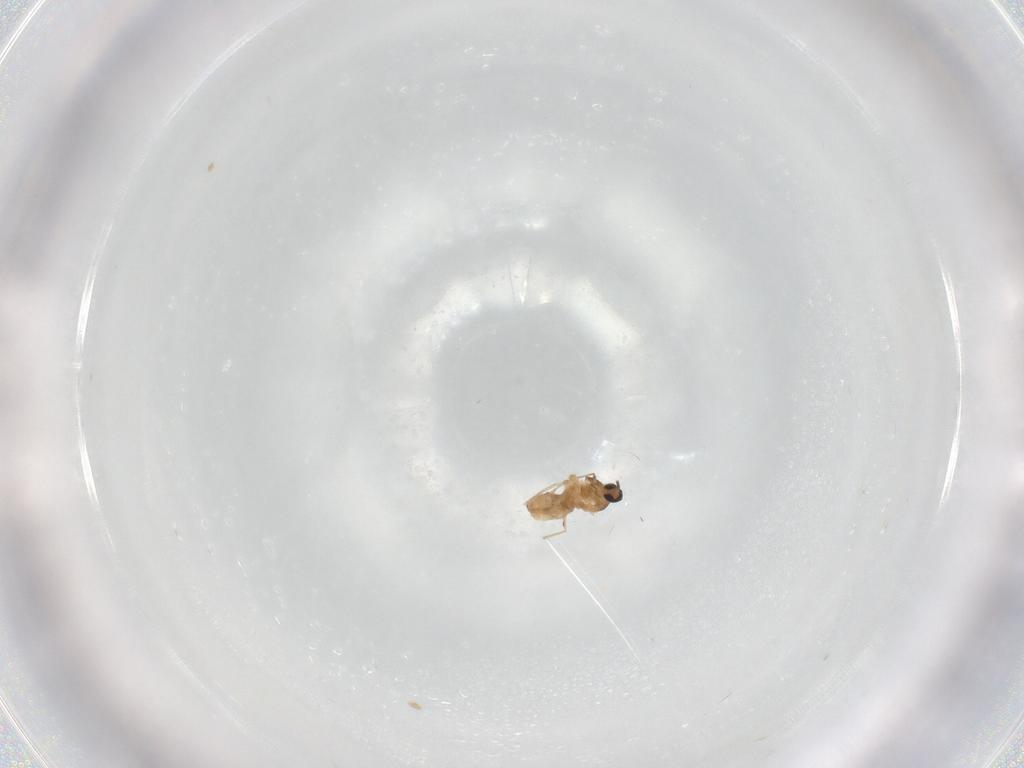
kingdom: Animalia
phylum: Arthropoda
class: Insecta
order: Diptera
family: Cecidomyiidae
